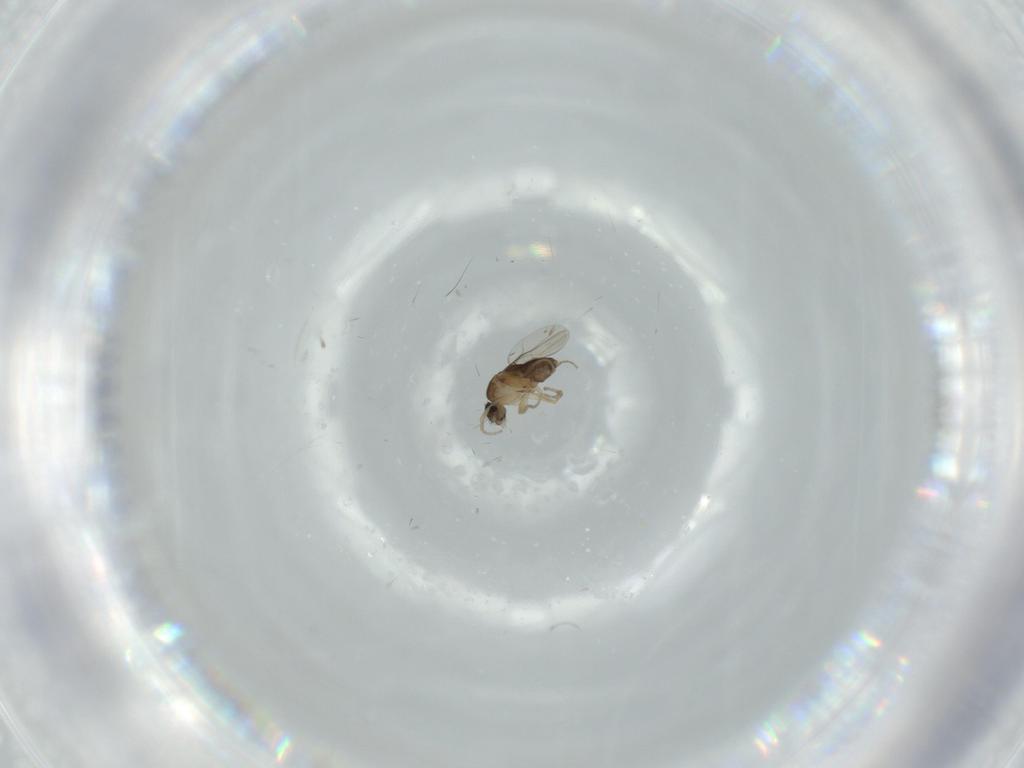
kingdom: Animalia
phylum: Arthropoda
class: Insecta
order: Diptera
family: Phoridae
